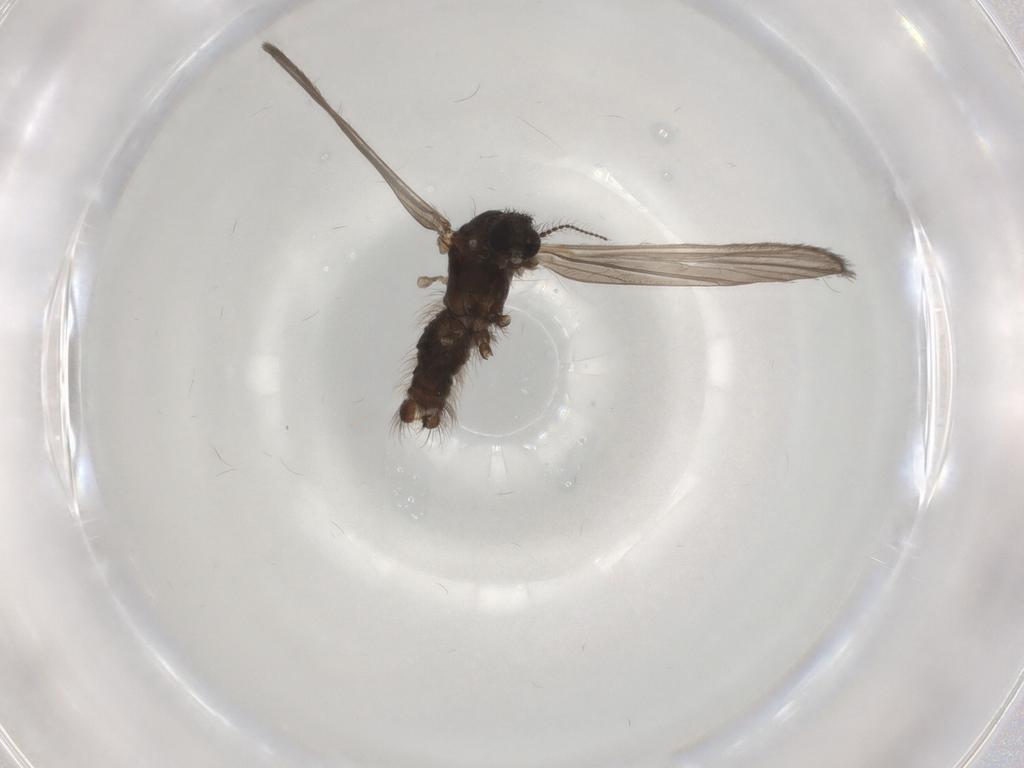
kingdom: Animalia
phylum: Arthropoda
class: Insecta
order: Diptera
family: Limoniidae
